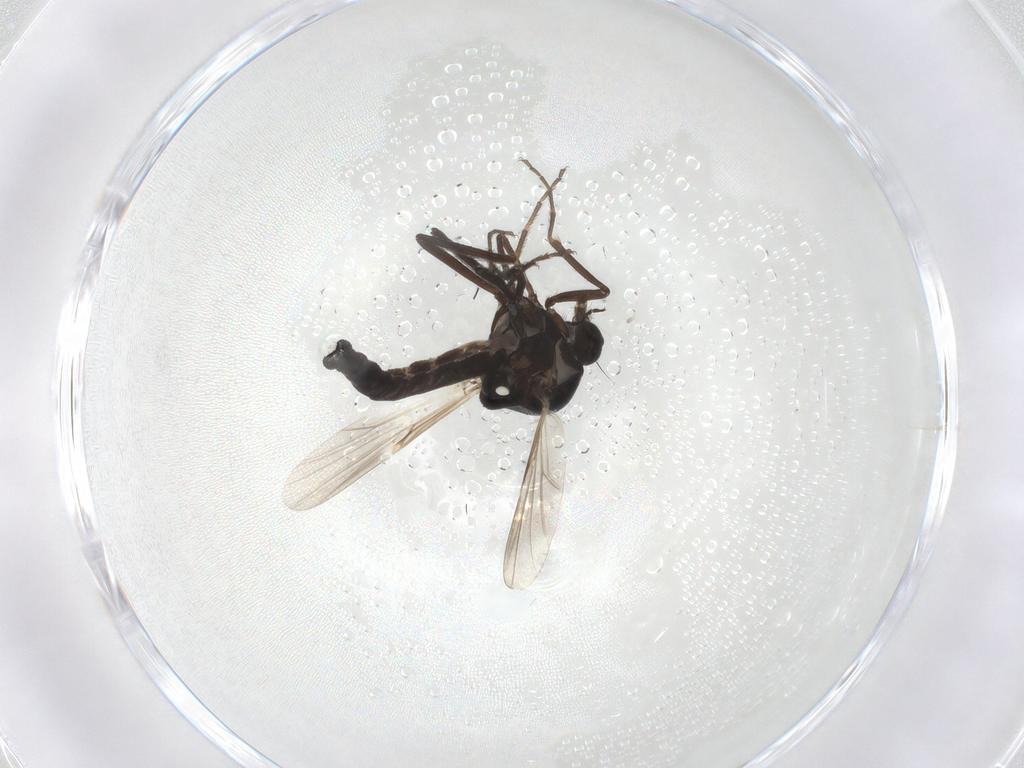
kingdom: Animalia
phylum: Arthropoda
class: Insecta
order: Diptera
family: Ceratopogonidae
